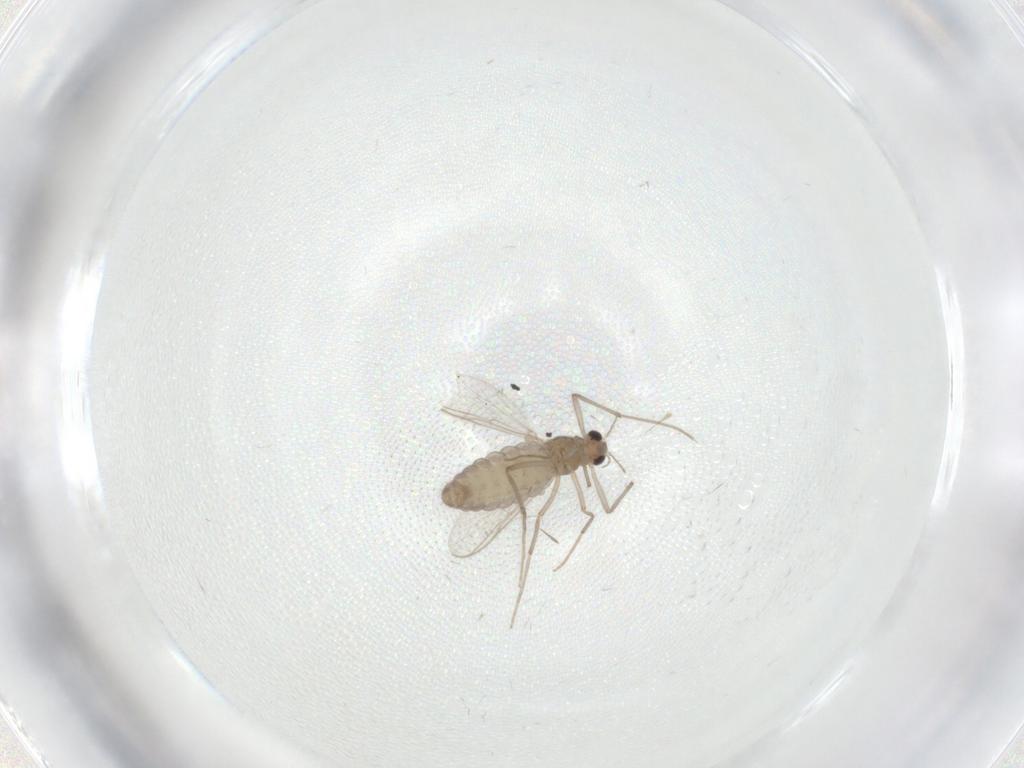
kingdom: Animalia
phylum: Arthropoda
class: Insecta
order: Diptera
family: Chironomidae
